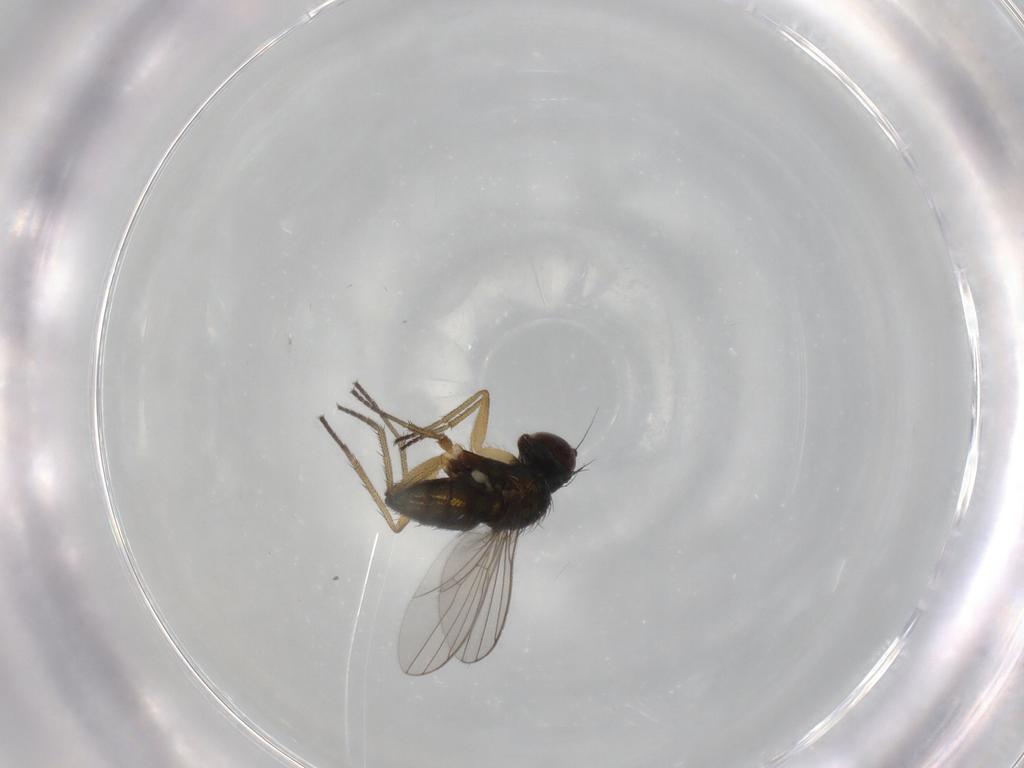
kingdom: Animalia
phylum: Arthropoda
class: Insecta
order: Diptera
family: Dolichopodidae
